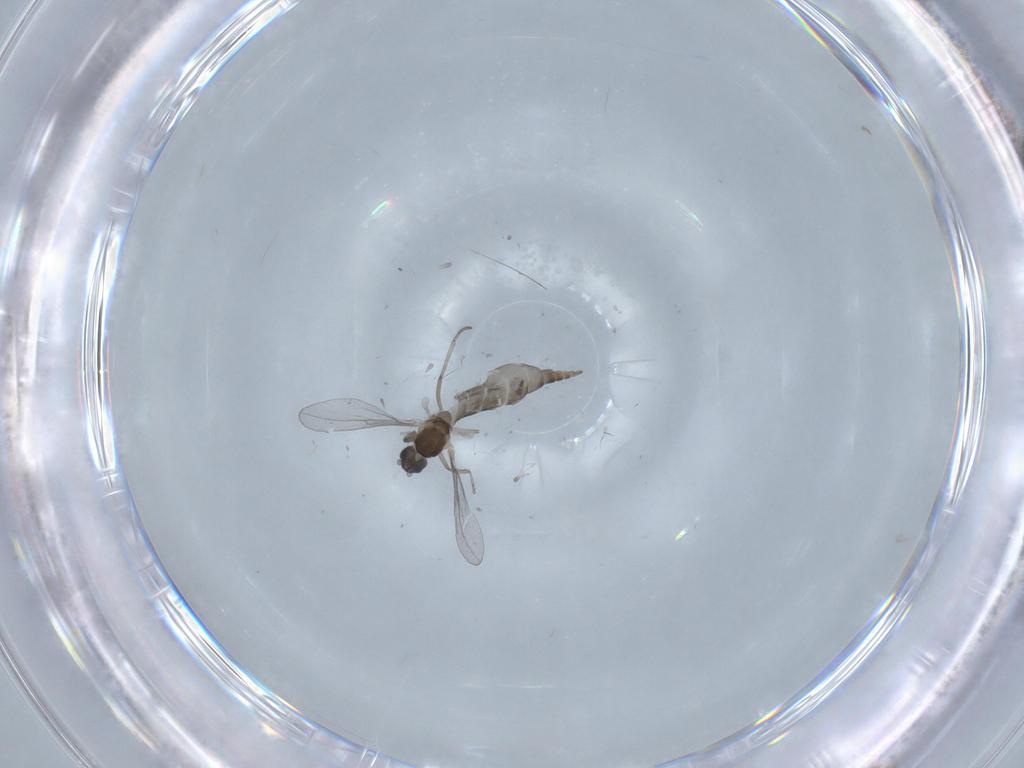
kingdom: Animalia
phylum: Arthropoda
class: Insecta
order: Diptera
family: Cecidomyiidae
